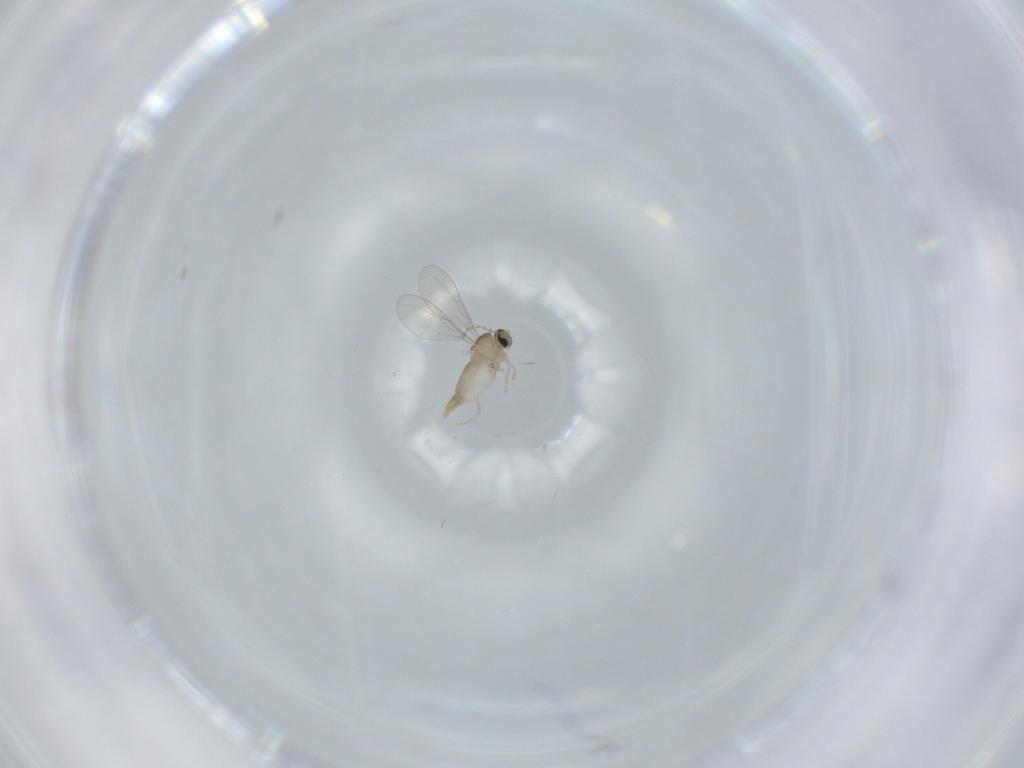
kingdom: Animalia
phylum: Arthropoda
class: Insecta
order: Diptera
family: Cecidomyiidae
